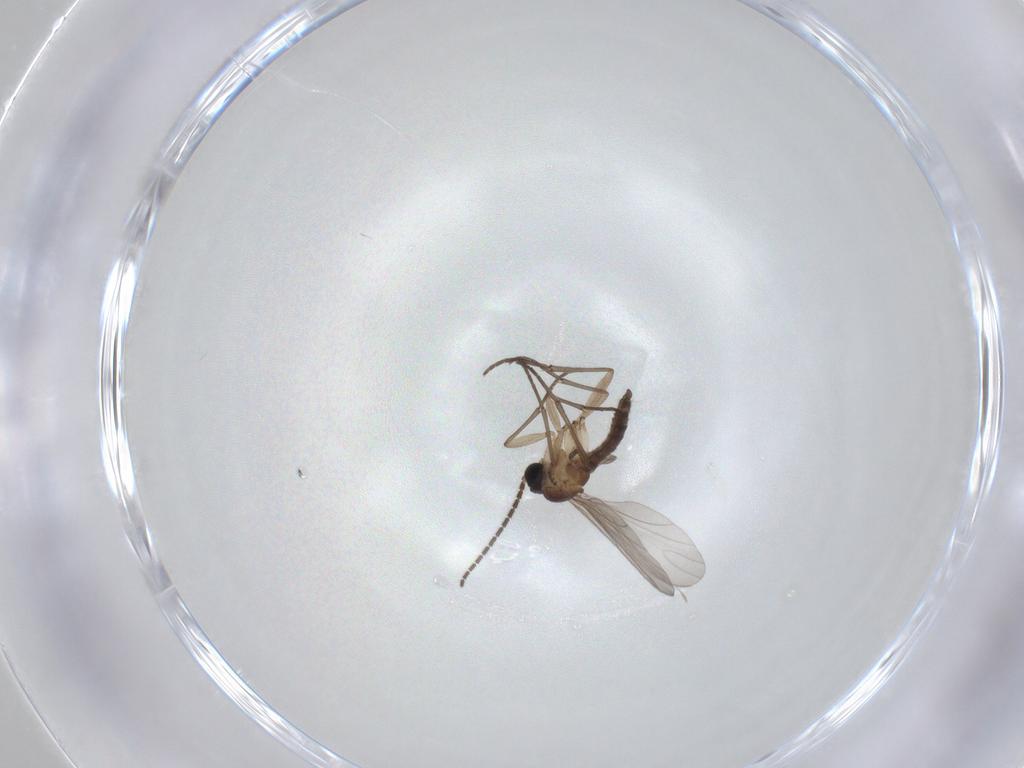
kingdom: Animalia
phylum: Arthropoda
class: Insecta
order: Diptera
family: Sciaridae
